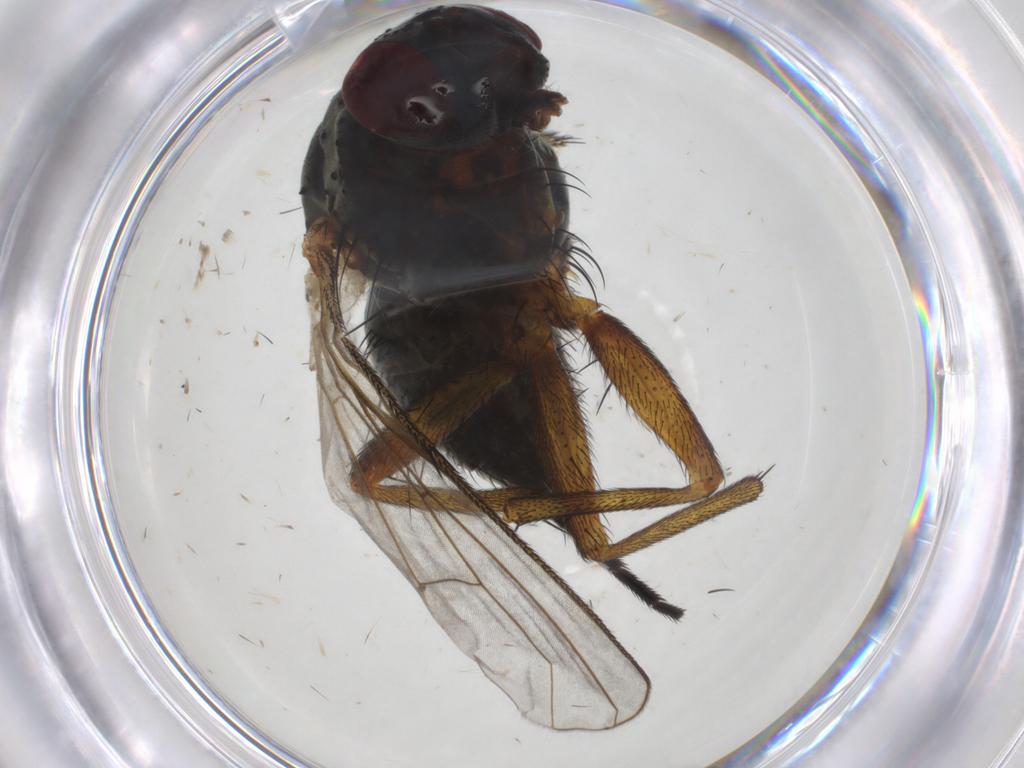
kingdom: Animalia
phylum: Arthropoda
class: Insecta
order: Diptera
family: Muscidae
